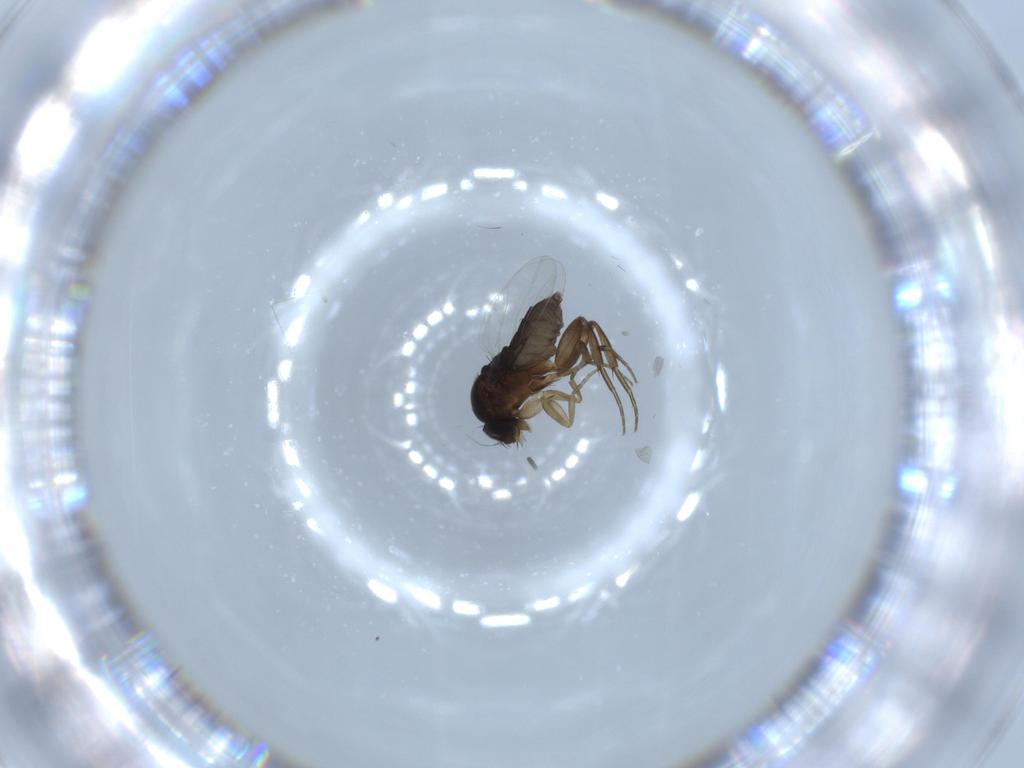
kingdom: Animalia
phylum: Arthropoda
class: Insecta
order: Diptera
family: Phoridae
